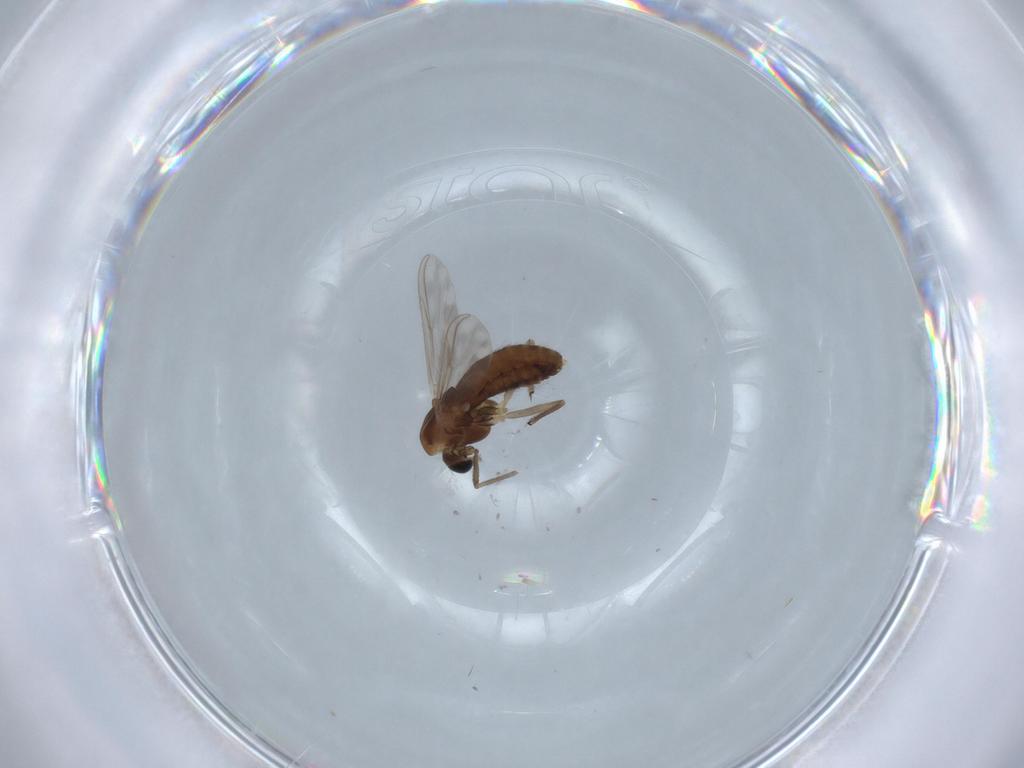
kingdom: Animalia
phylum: Arthropoda
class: Insecta
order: Diptera
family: Chironomidae
